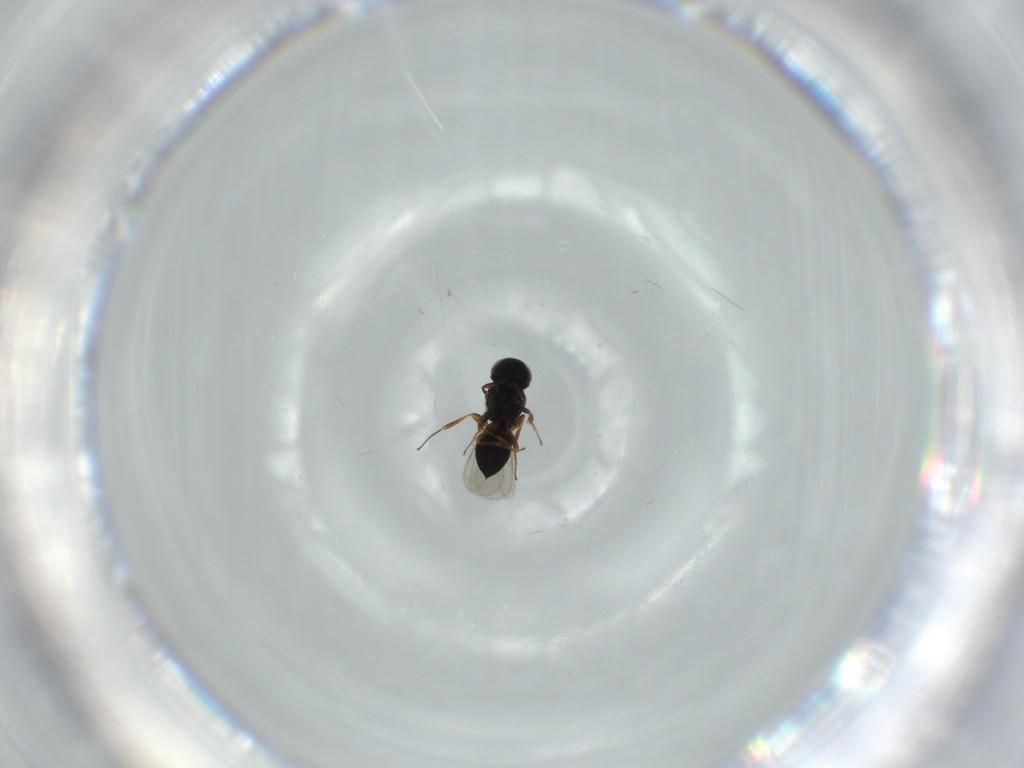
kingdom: Animalia
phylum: Arthropoda
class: Insecta
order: Hymenoptera
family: Scelionidae
